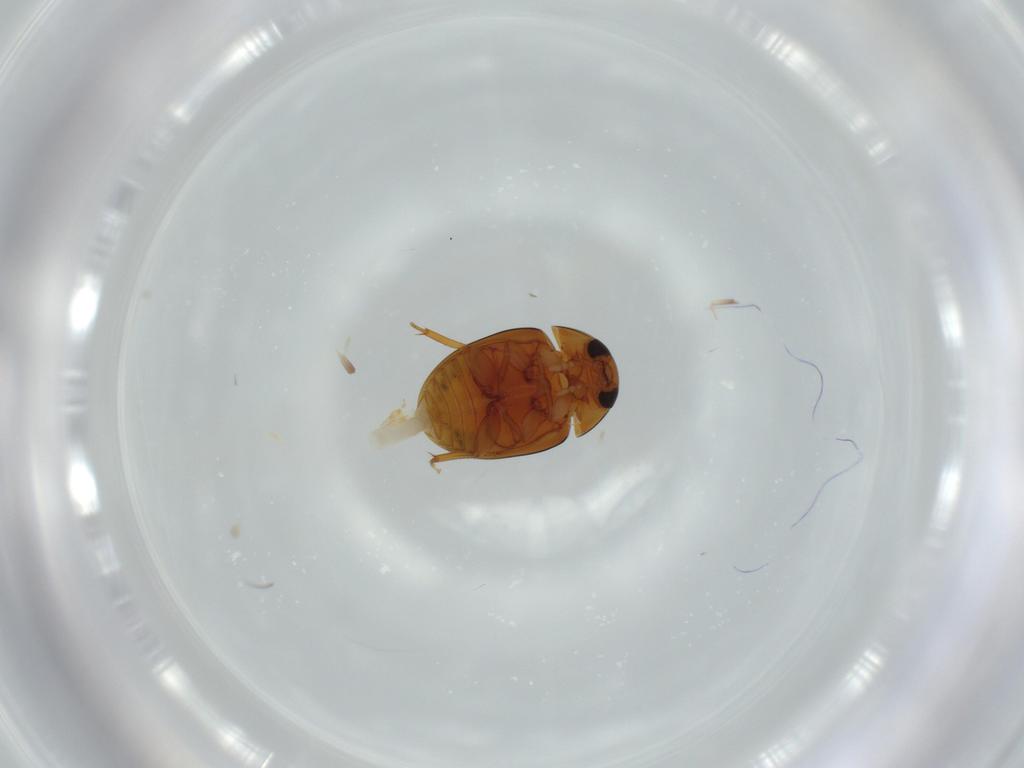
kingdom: Animalia
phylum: Arthropoda
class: Insecta
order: Coleoptera
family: Phalacridae
